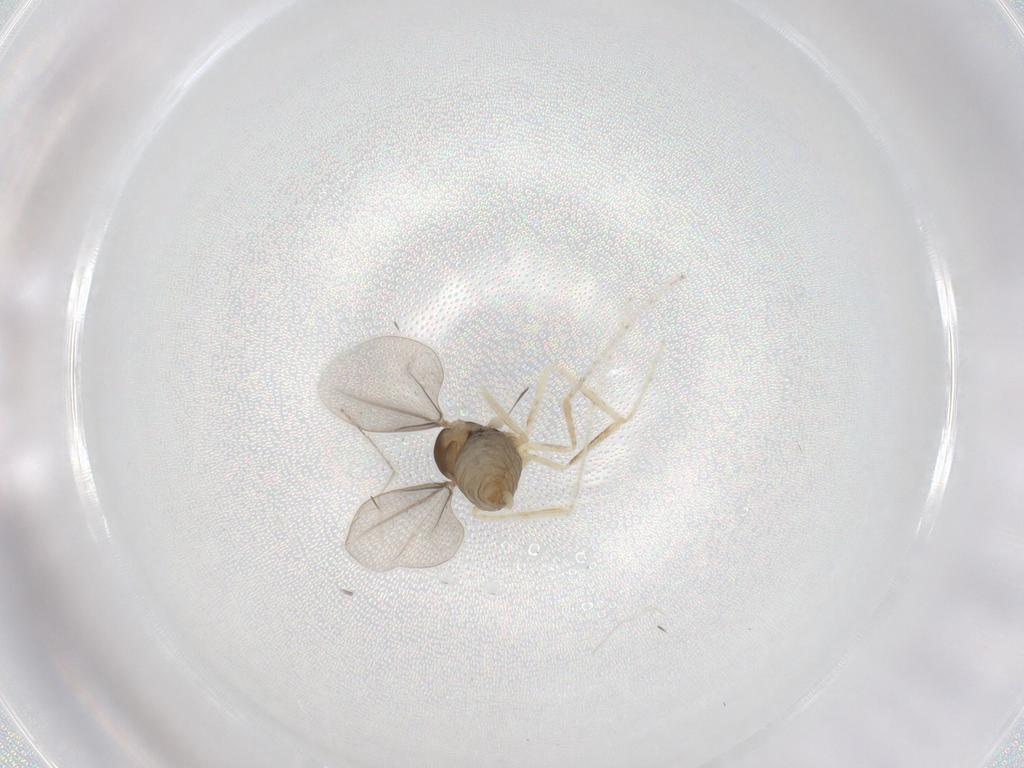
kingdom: Animalia
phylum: Arthropoda
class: Insecta
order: Diptera
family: Cecidomyiidae
